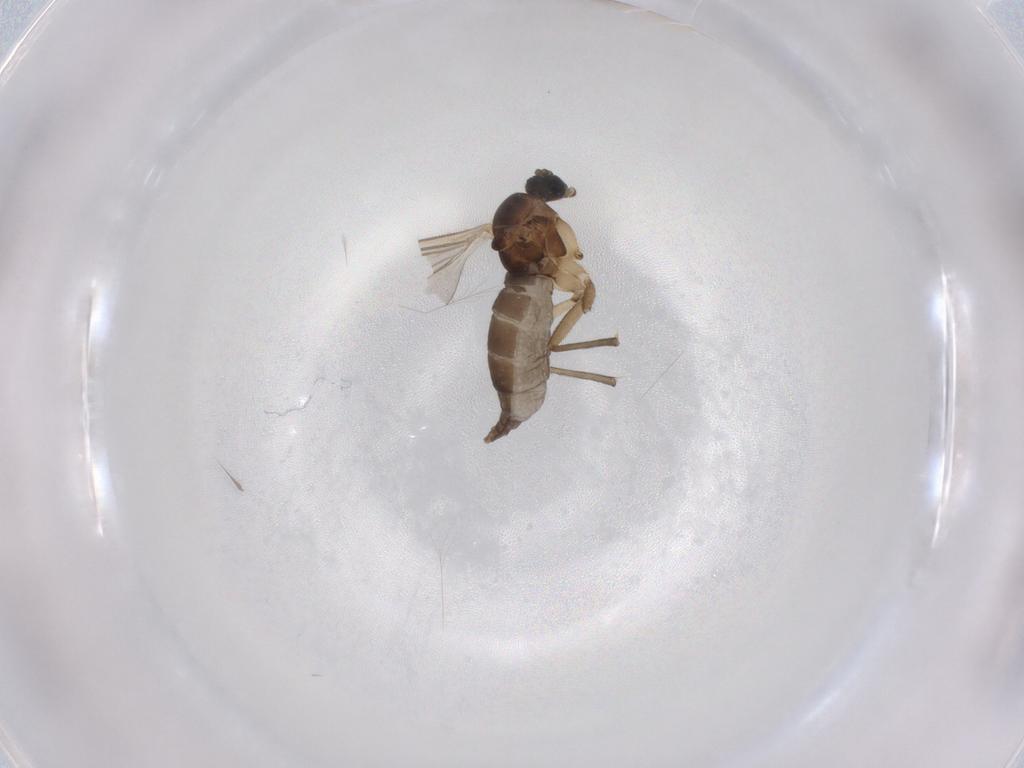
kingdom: Animalia
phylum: Arthropoda
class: Insecta
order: Diptera
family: Sciaridae
